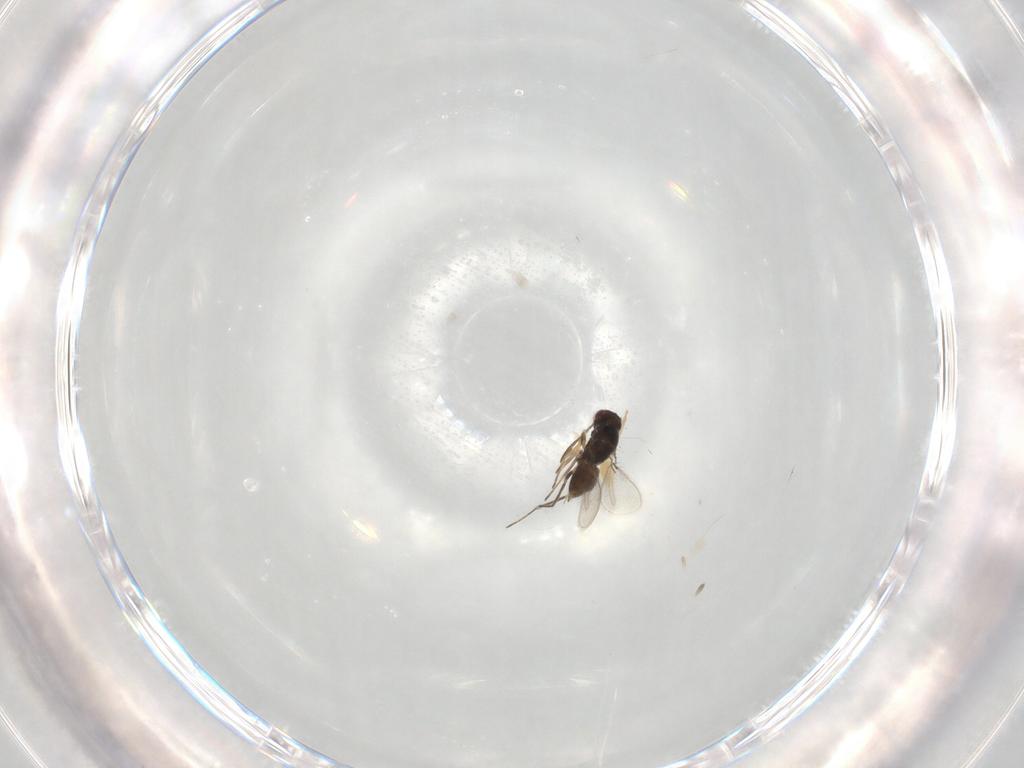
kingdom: Animalia
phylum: Arthropoda
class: Insecta
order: Hymenoptera
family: Mymaridae
